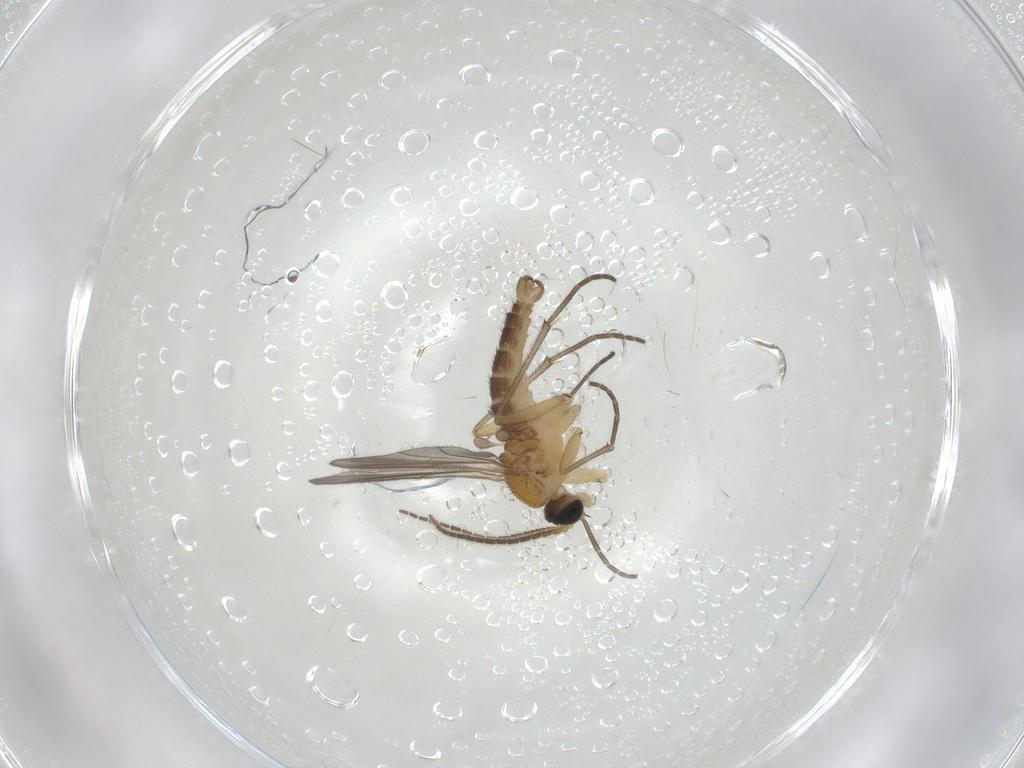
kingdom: Animalia
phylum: Arthropoda
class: Insecta
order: Diptera
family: Sciaridae
